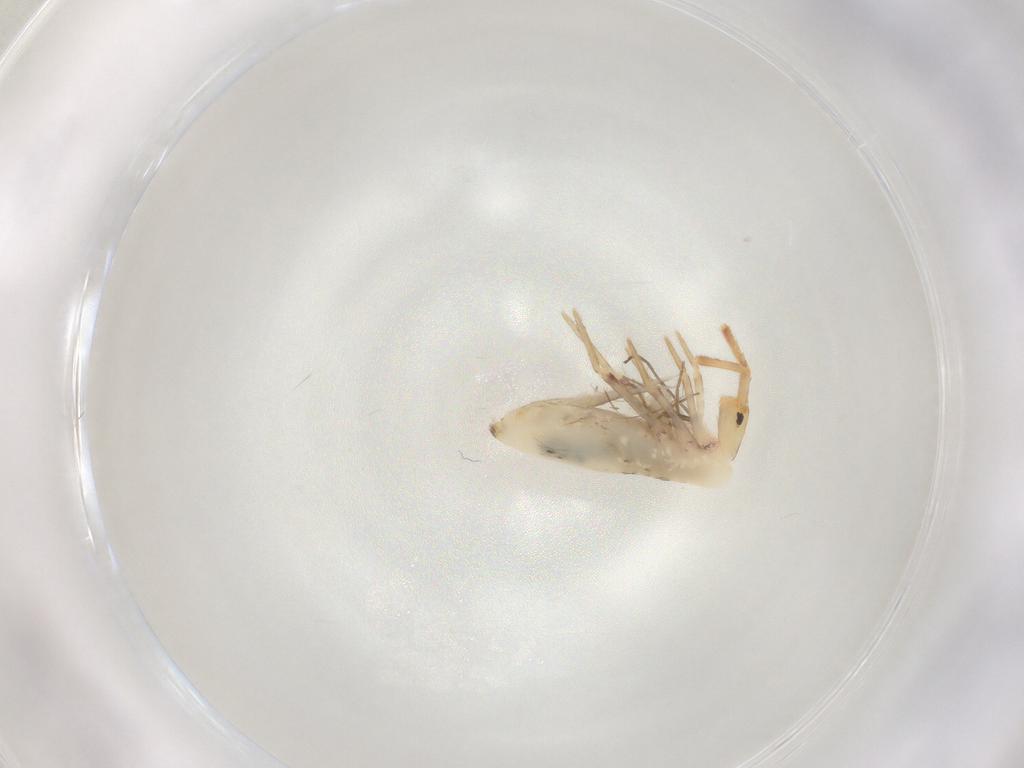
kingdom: Animalia
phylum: Arthropoda
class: Collembola
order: Poduromorpha
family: Hypogastruridae
